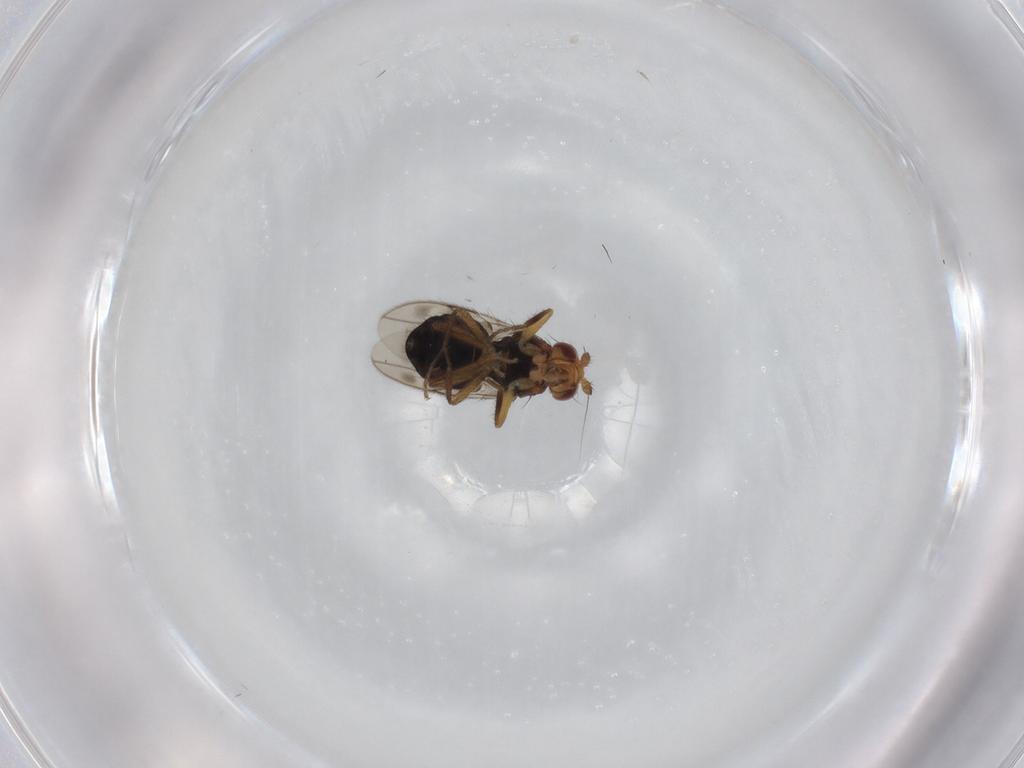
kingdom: Animalia
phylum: Arthropoda
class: Insecta
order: Diptera
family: Sphaeroceridae
